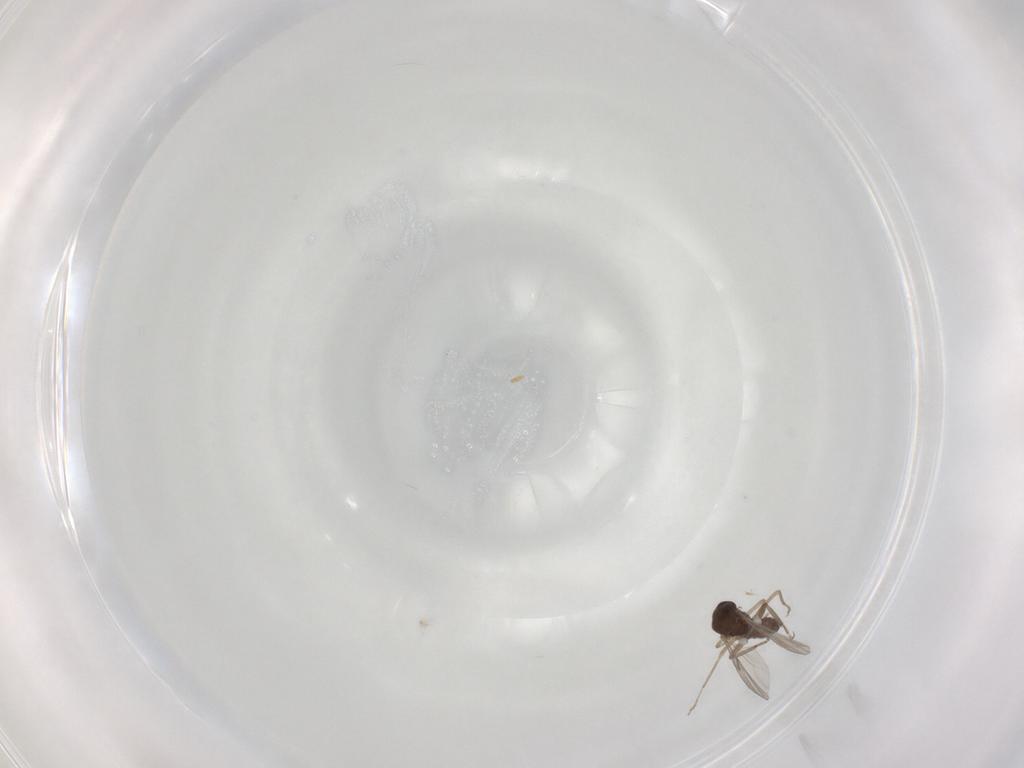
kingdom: Animalia
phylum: Arthropoda
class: Insecta
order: Diptera
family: Ceratopogonidae
